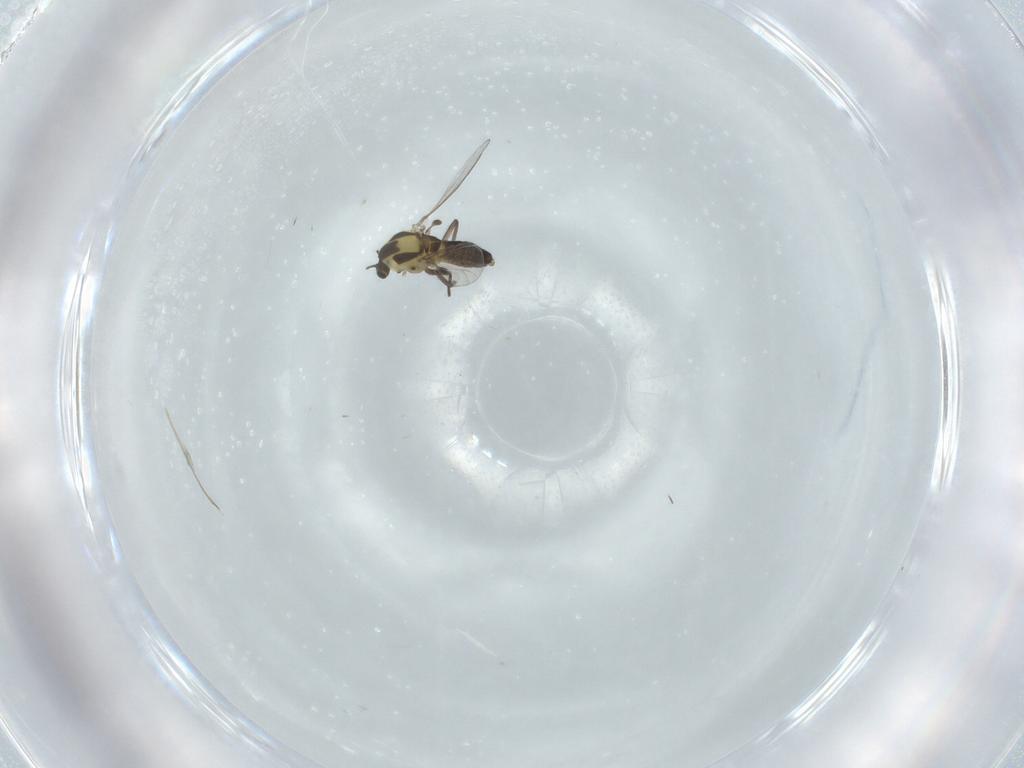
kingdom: Animalia
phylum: Arthropoda
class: Insecta
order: Diptera
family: Chironomidae
